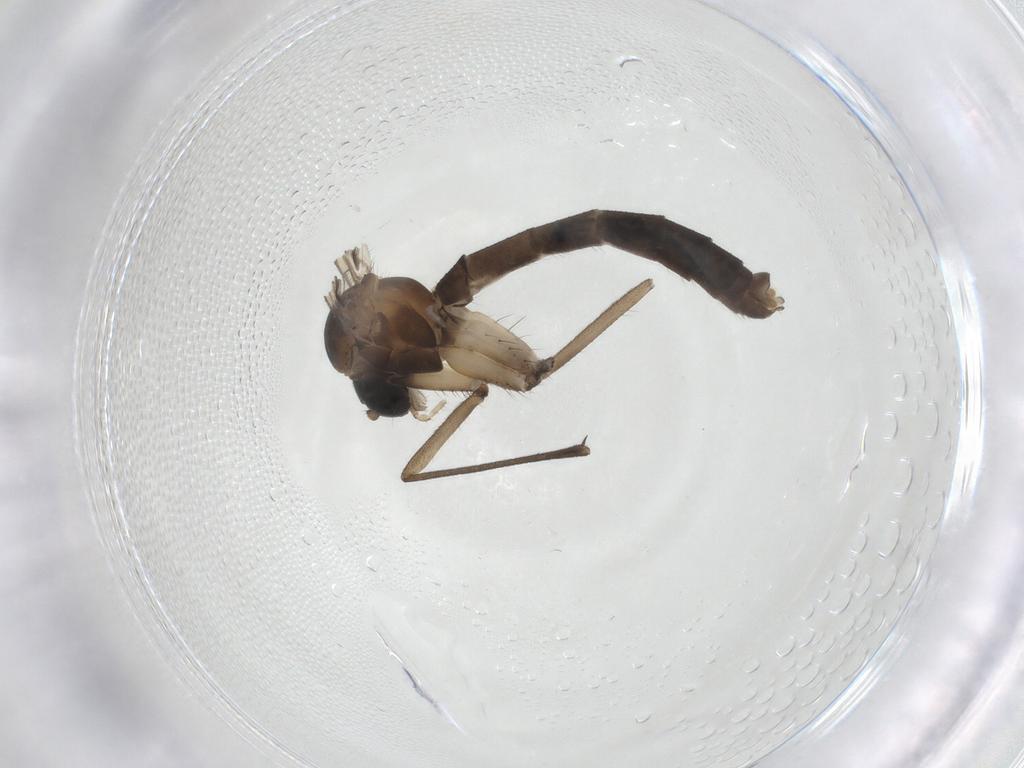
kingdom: Animalia
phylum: Arthropoda
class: Insecta
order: Diptera
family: Mycetophilidae
